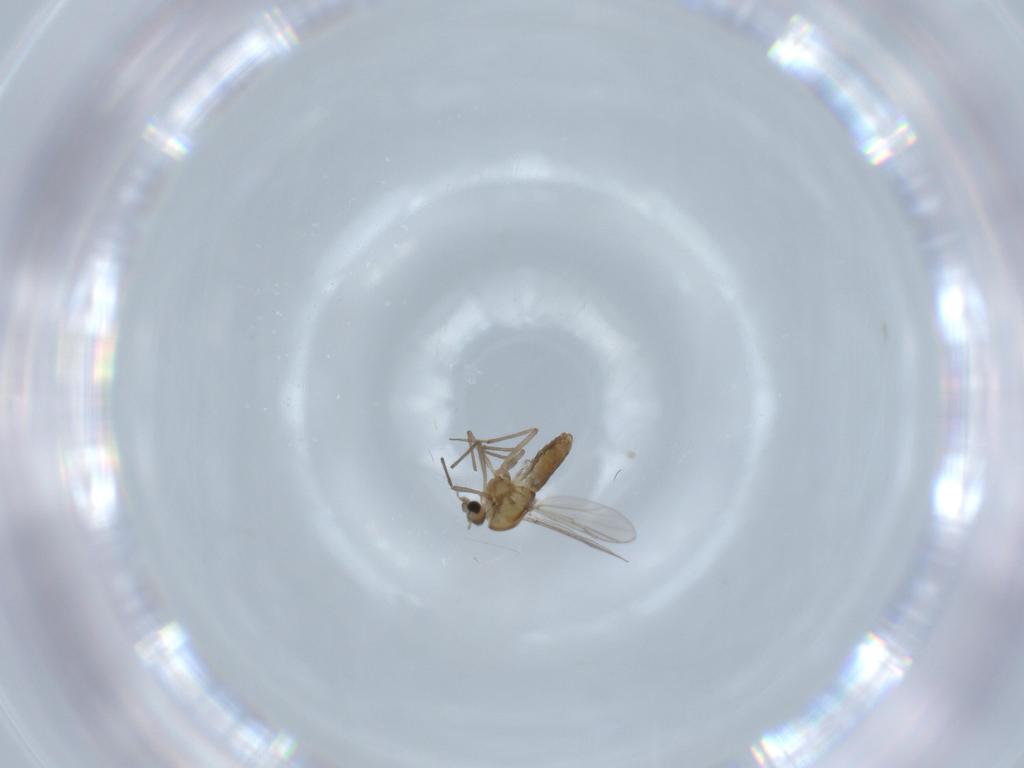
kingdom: Animalia
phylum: Arthropoda
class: Insecta
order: Diptera
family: Chironomidae
